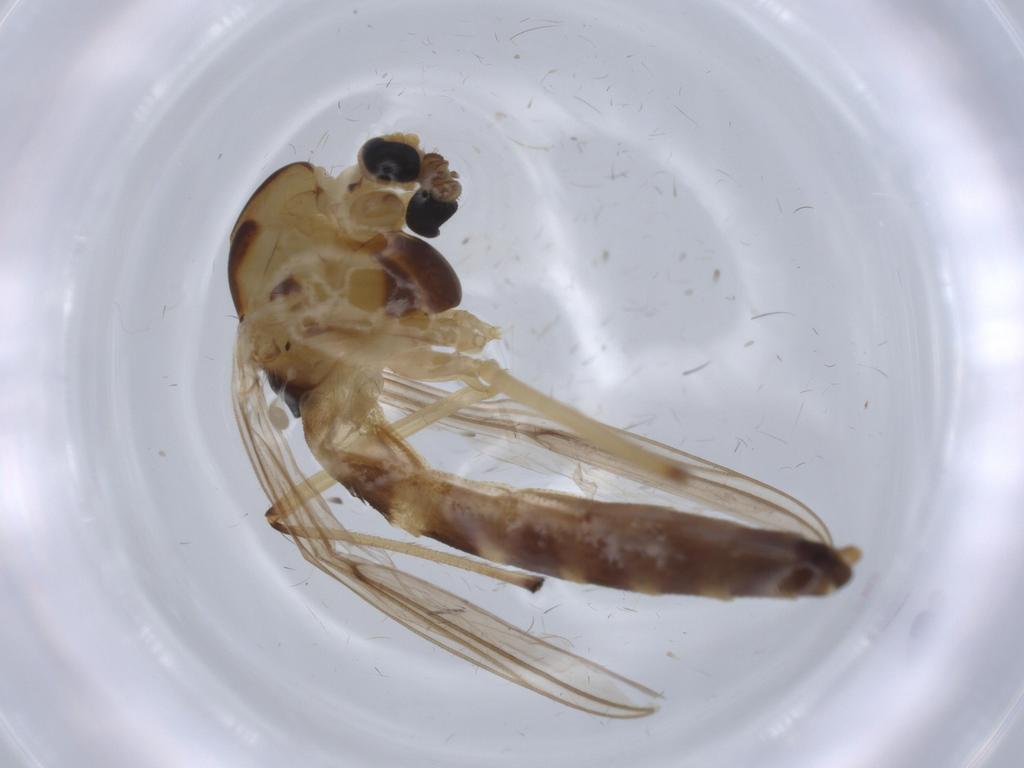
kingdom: Animalia
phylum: Arthropoda
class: Insecta
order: Diptera
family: Chironomidae
